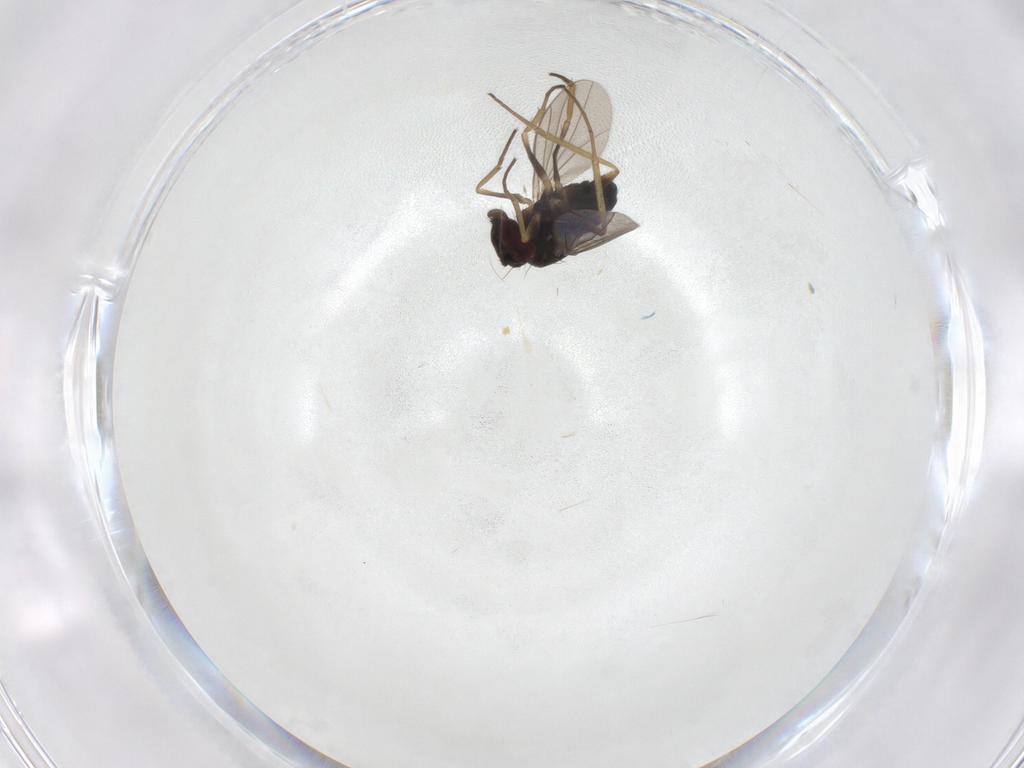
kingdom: Animalia
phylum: Arthropoda
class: Insecta
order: Diptera
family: Dolichopodidae
